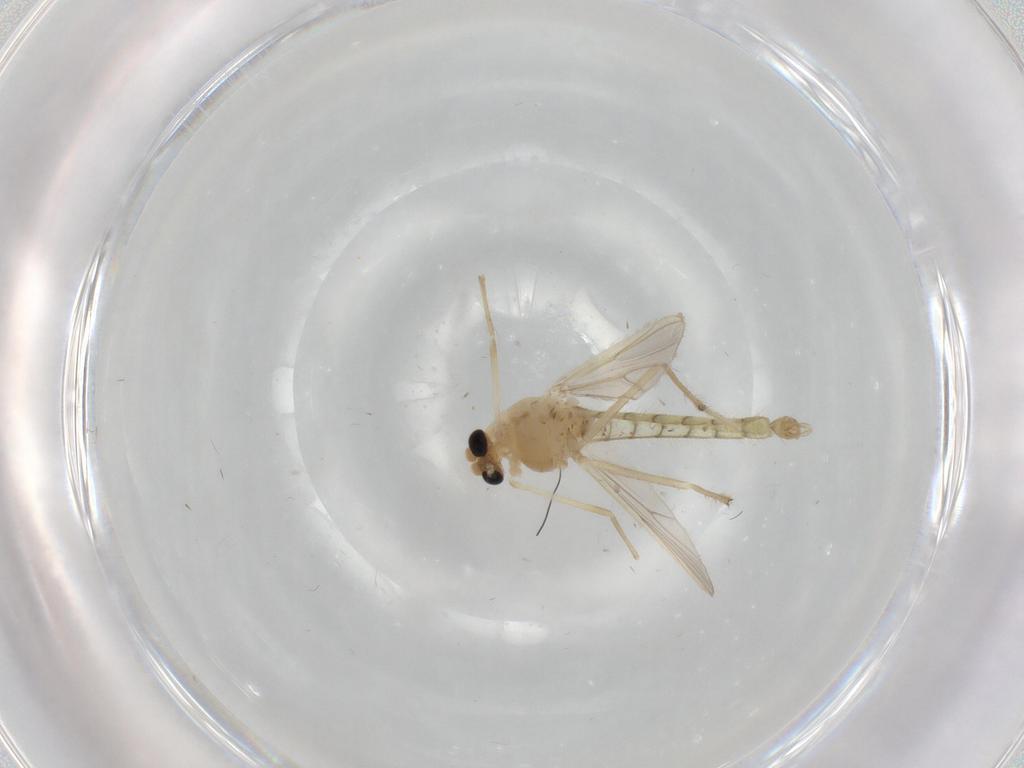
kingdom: Animalia
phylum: Arthropoda
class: Insecta
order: Diptera
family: Chironomidae
